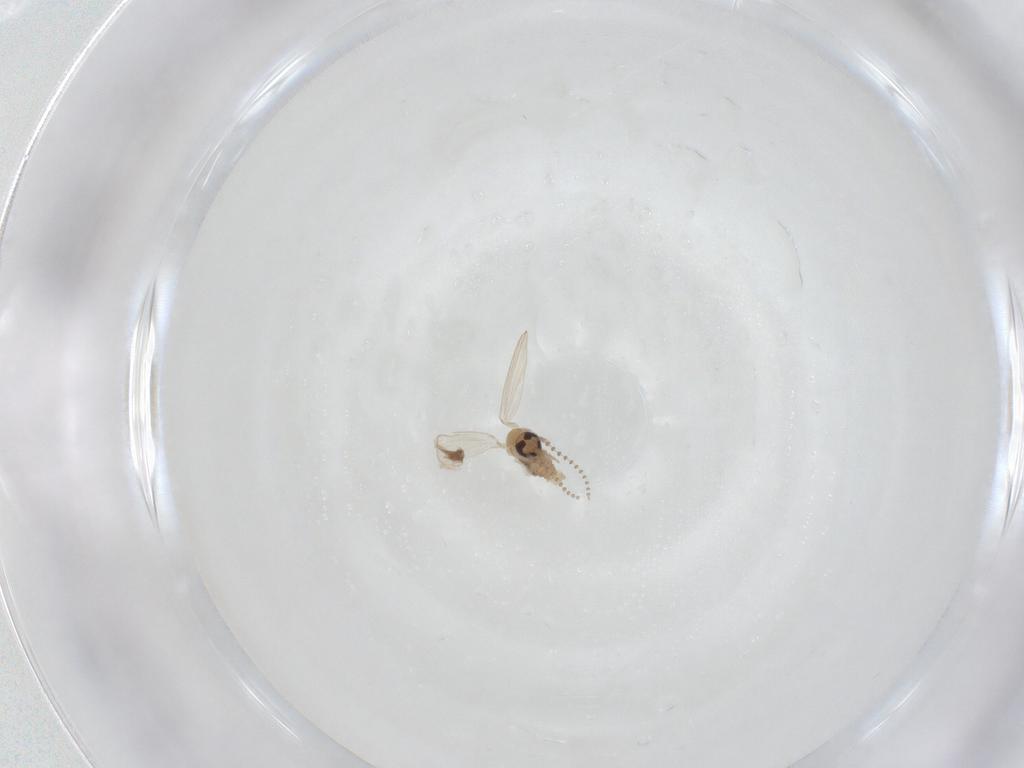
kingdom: Animalia
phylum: Arthropoda
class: Insecta
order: Diptera
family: Psychodidae
